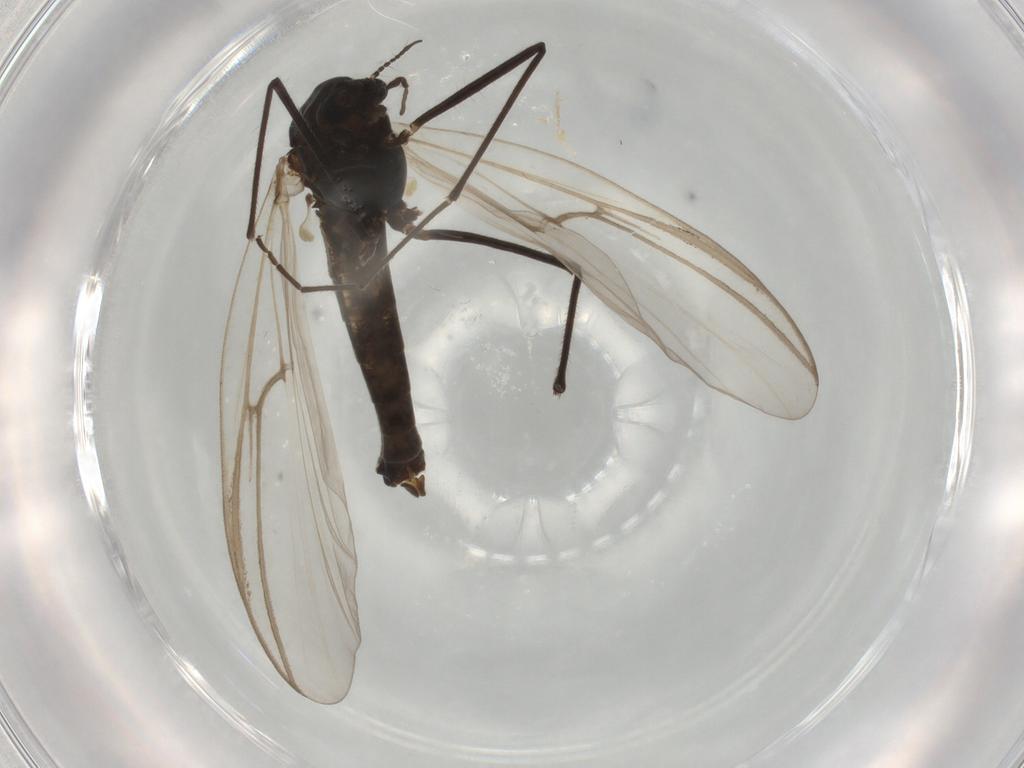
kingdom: Animalia
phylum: Arthropoda
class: Insecta
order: Diptera
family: Chironomidae
